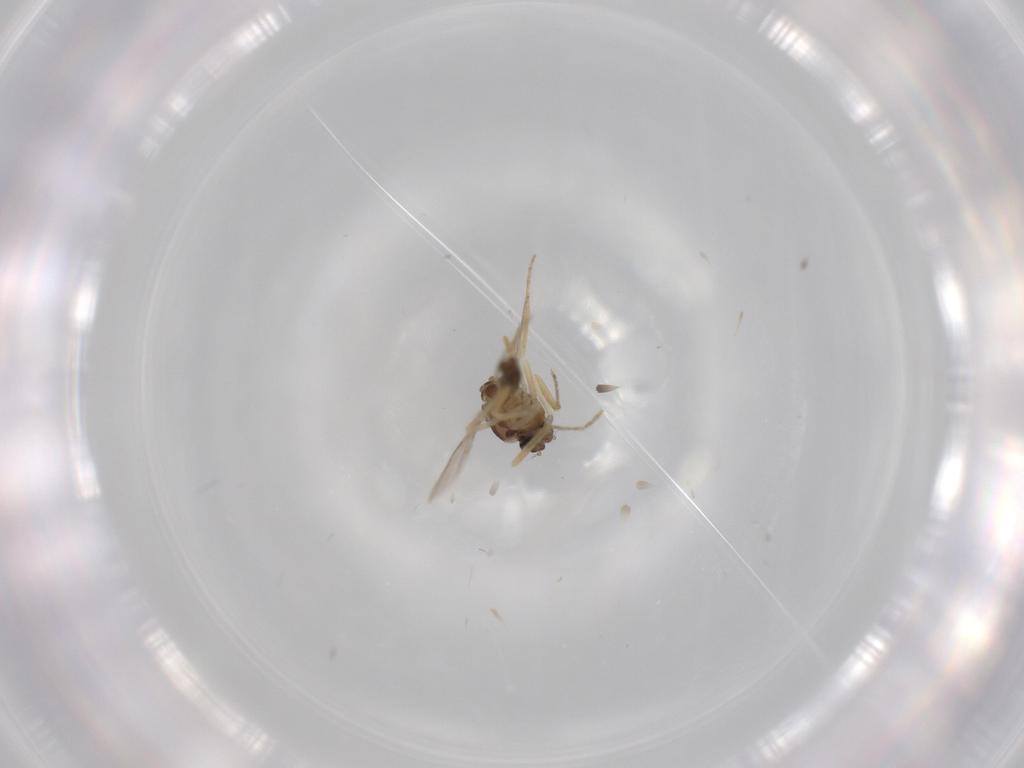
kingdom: Animalia
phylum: Arthropoda
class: Insecta
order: Diptera
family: Ceratopogonidae
